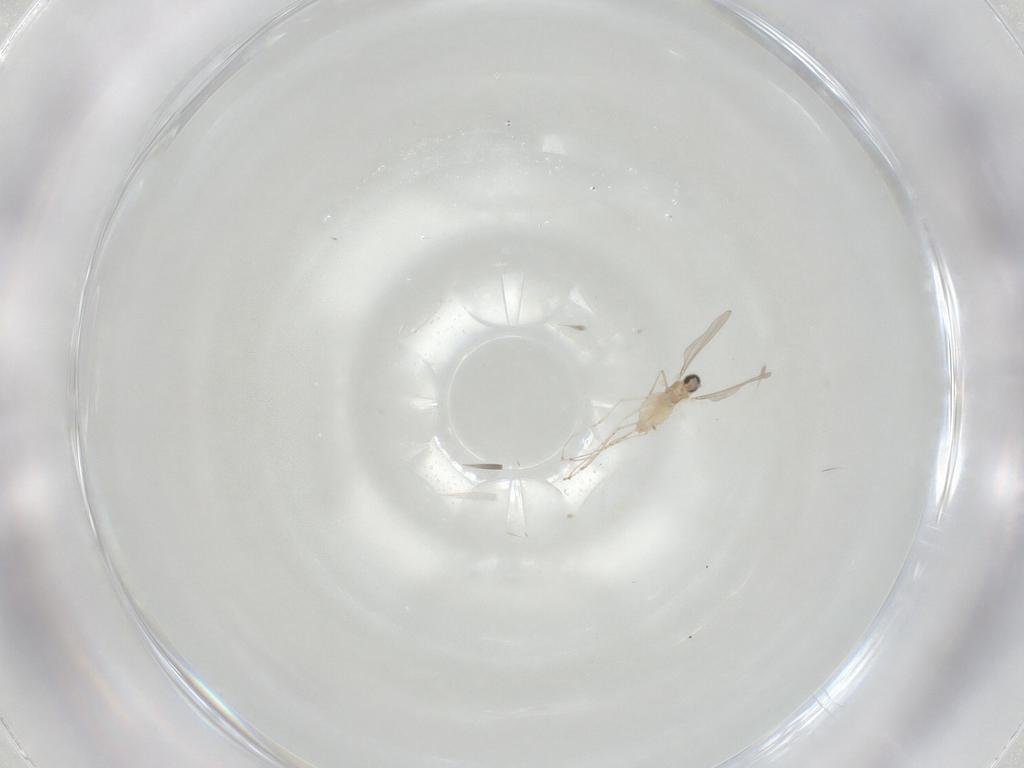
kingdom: Animalia
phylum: Arthropoda
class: Insecta
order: Diptera
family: Cecidomyiidae
